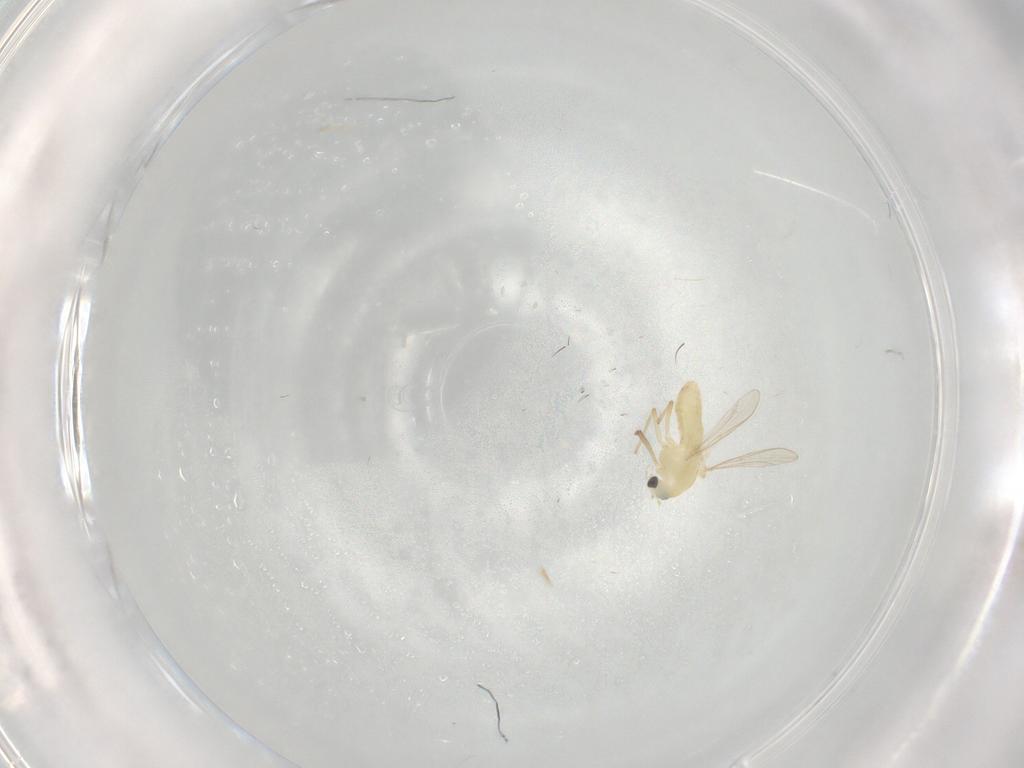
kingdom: Animalia
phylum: Arthropoda
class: Insecta
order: Diptera
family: Chironomidae
